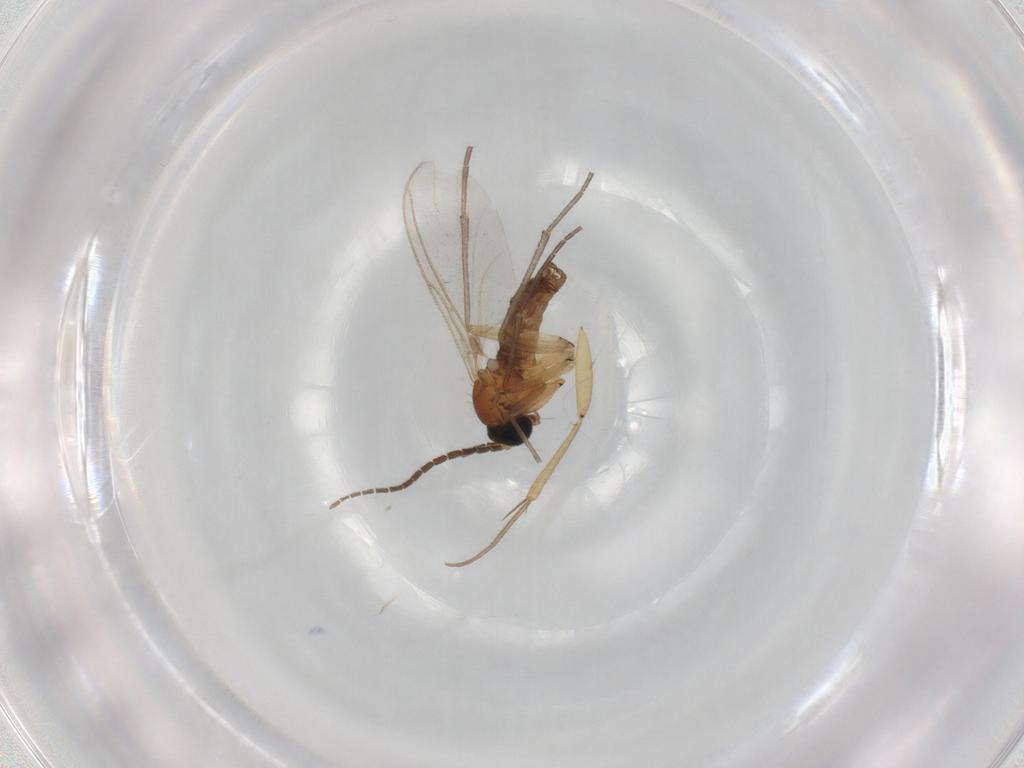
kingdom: Animalia
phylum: Arthropoda
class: Insecta
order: Diptera
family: Sciaridae
